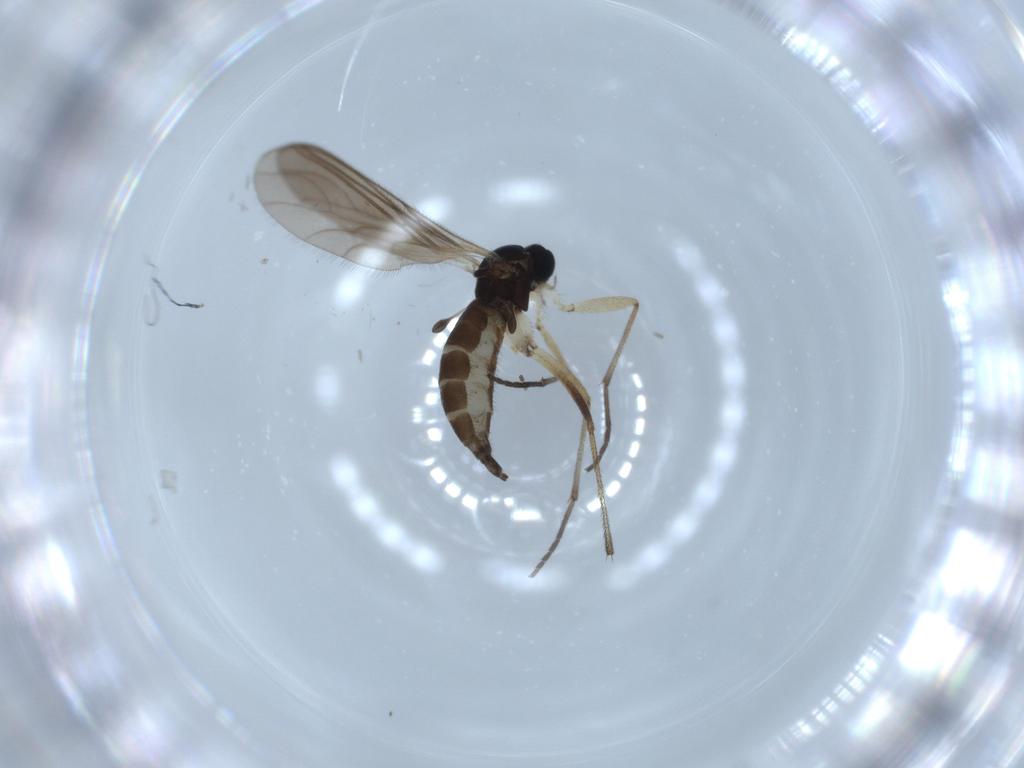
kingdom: Animalia
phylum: Arthropoda
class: Insecta
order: Diptera
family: Sciaridae
